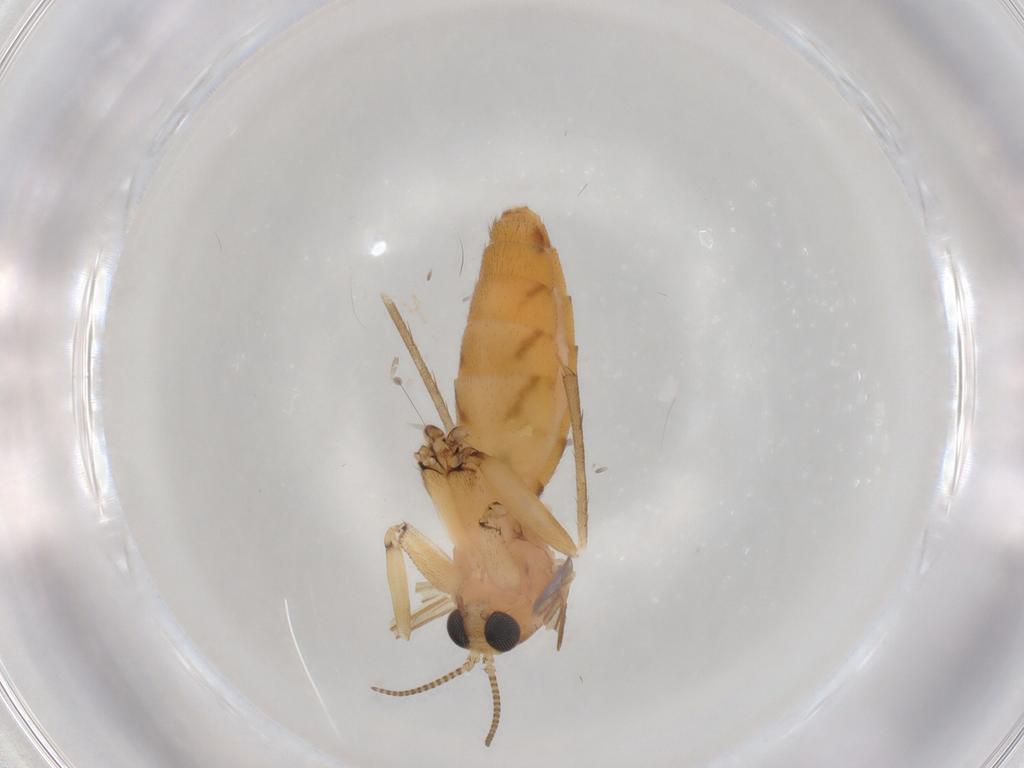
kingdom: Animalia
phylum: Arthropoda
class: Insecta
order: Diptera
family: Mycetophilidae
